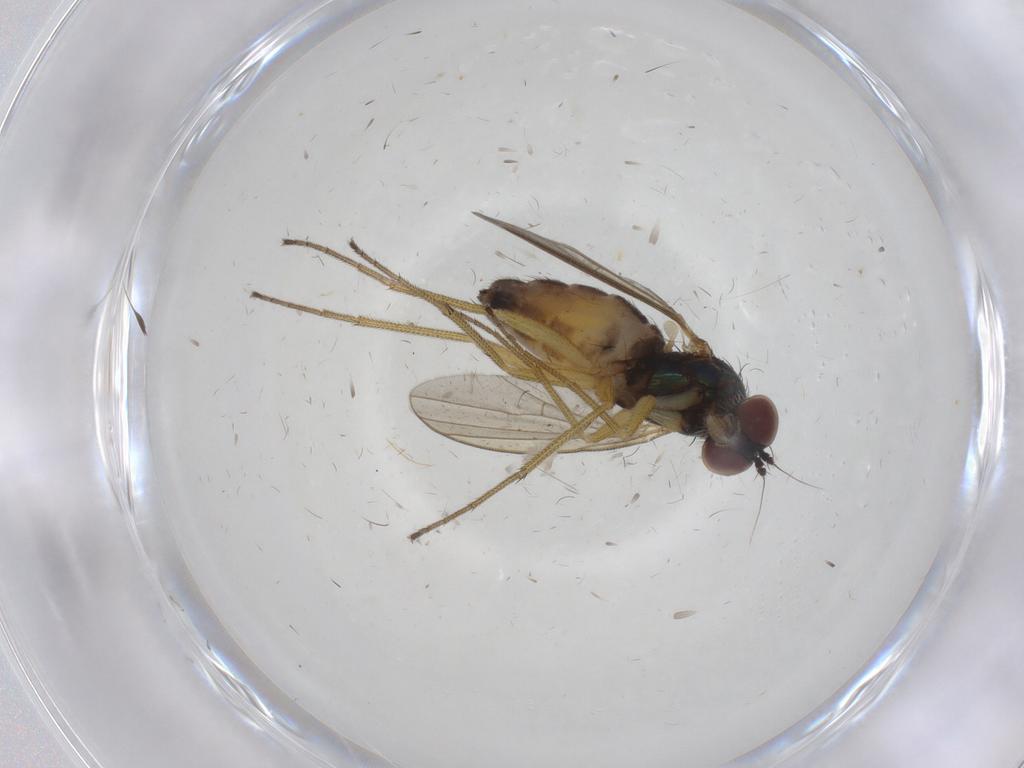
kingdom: Animalia
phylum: Arthropoda
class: Insecta
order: Diptera
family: Dolichopodidae
